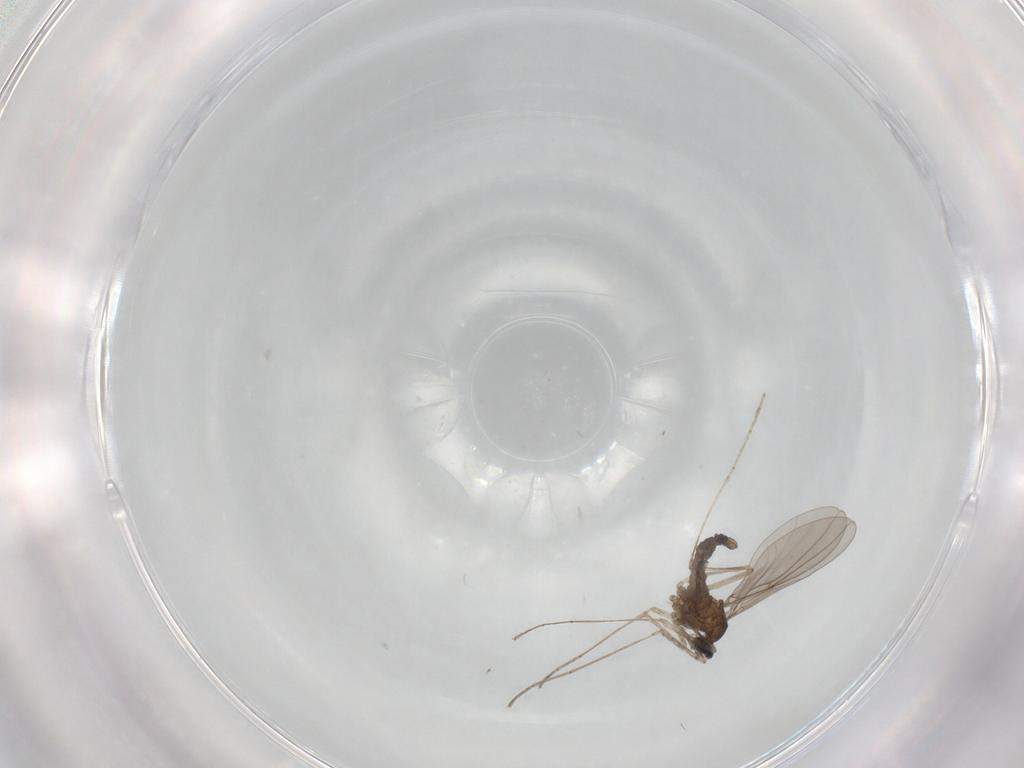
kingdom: Animalia
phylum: Arthropoda
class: Insecta
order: Diptera
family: Cecidomyiidae
